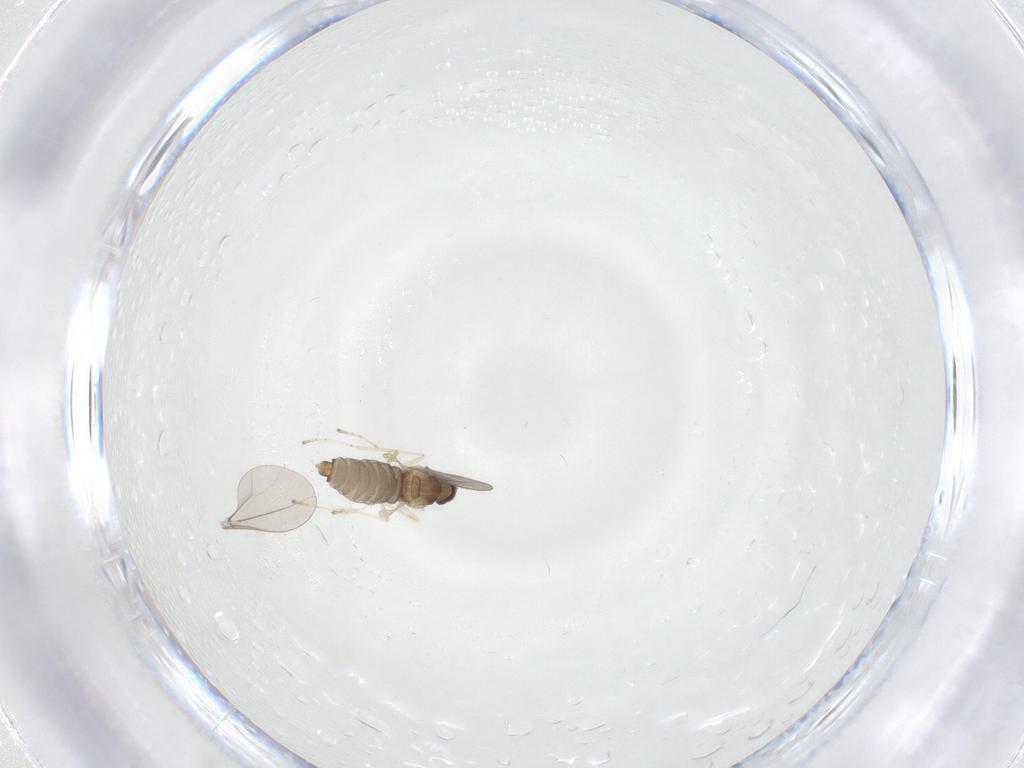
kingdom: Animalia
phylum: Arthropoda
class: Insecta
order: Diptera
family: Cecidomyiidae
